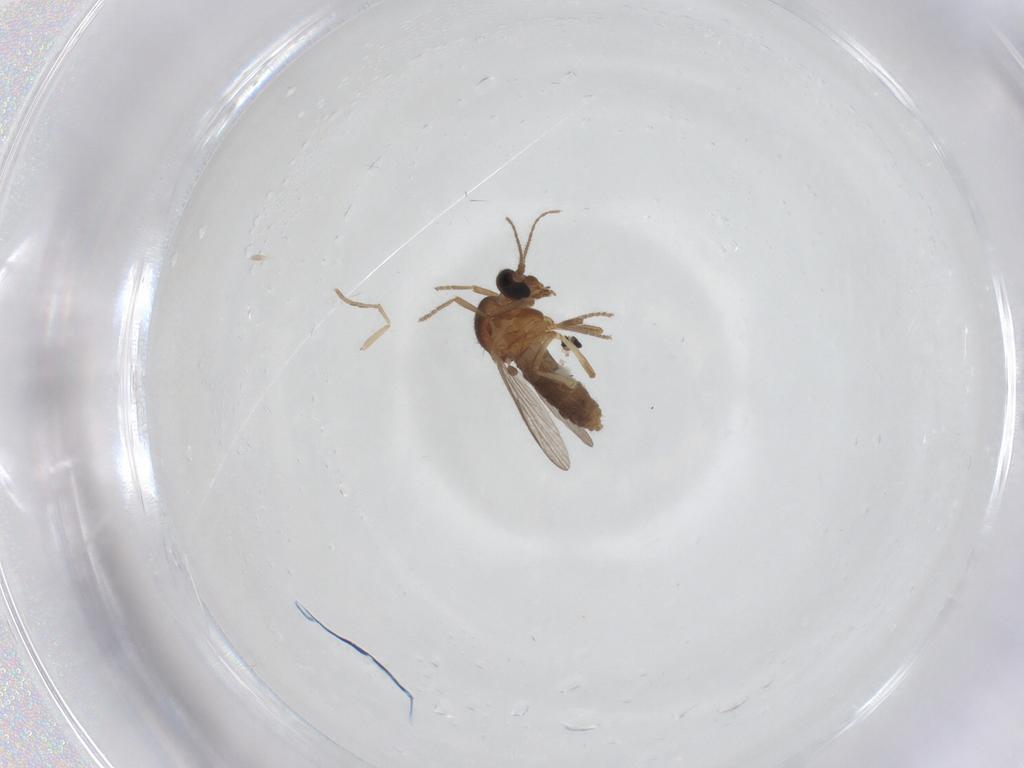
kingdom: Animalia
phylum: Arthropoda
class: Insecta
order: Diptera
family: Ceratopogonidae
